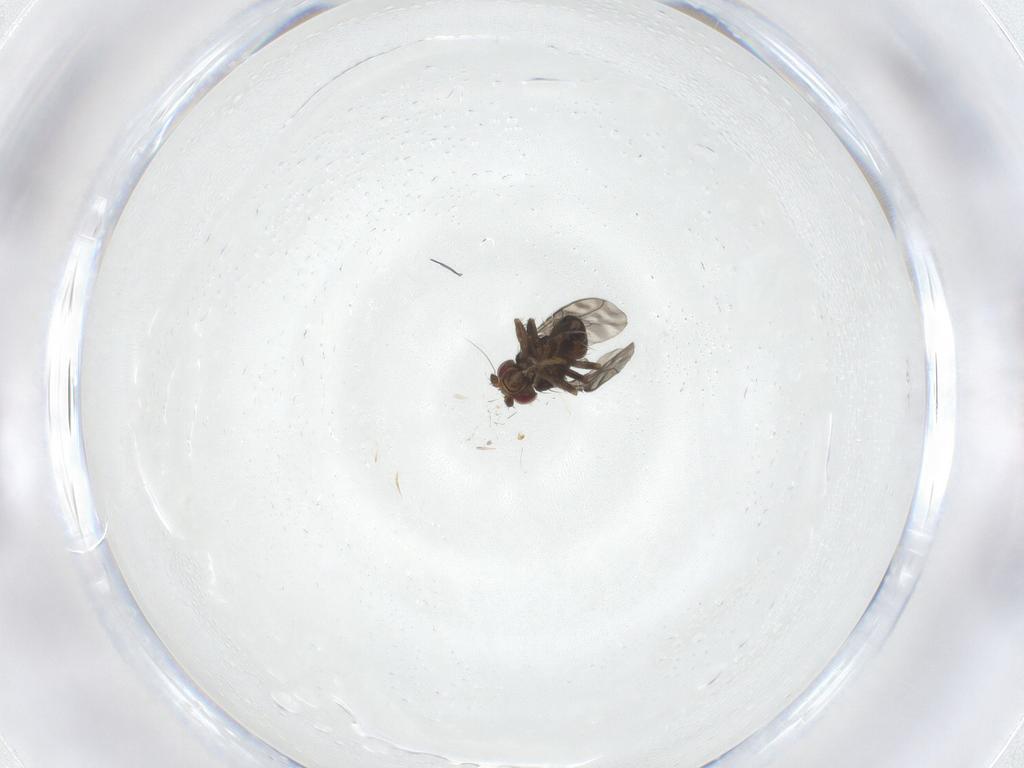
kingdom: Animalia
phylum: Arthropoda
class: Insecta
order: Diptera
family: Sphaeroceridae
